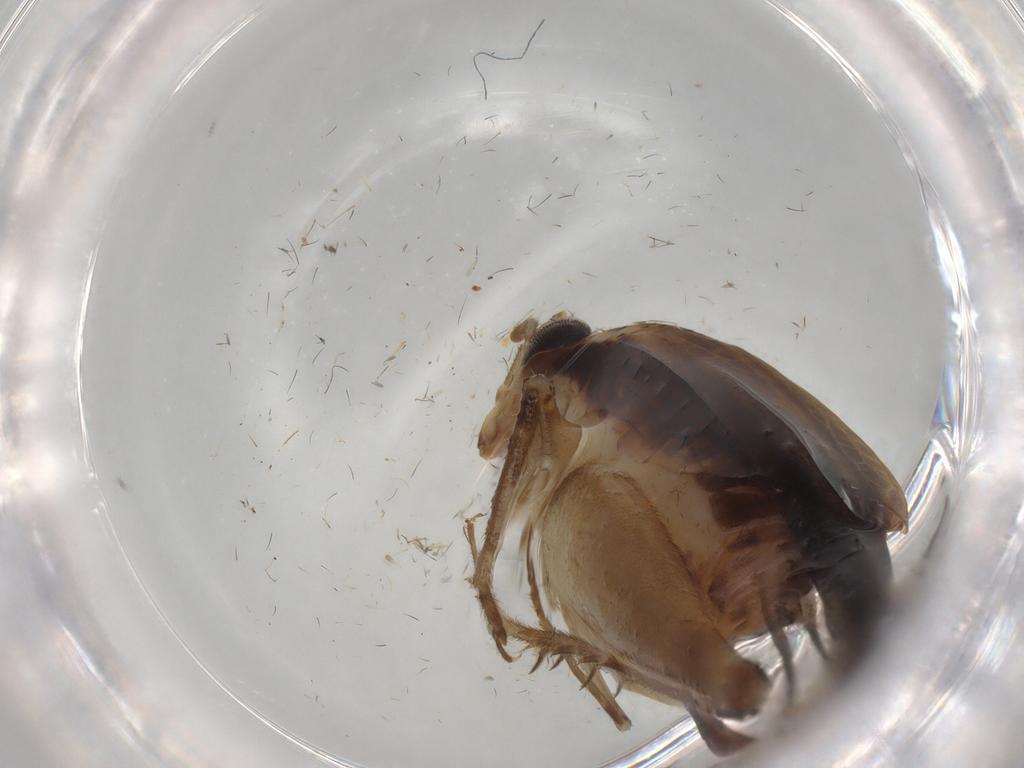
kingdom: Animalia
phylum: Arthropoda
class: Insecta
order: Orthoptera
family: Trigonidiidae
